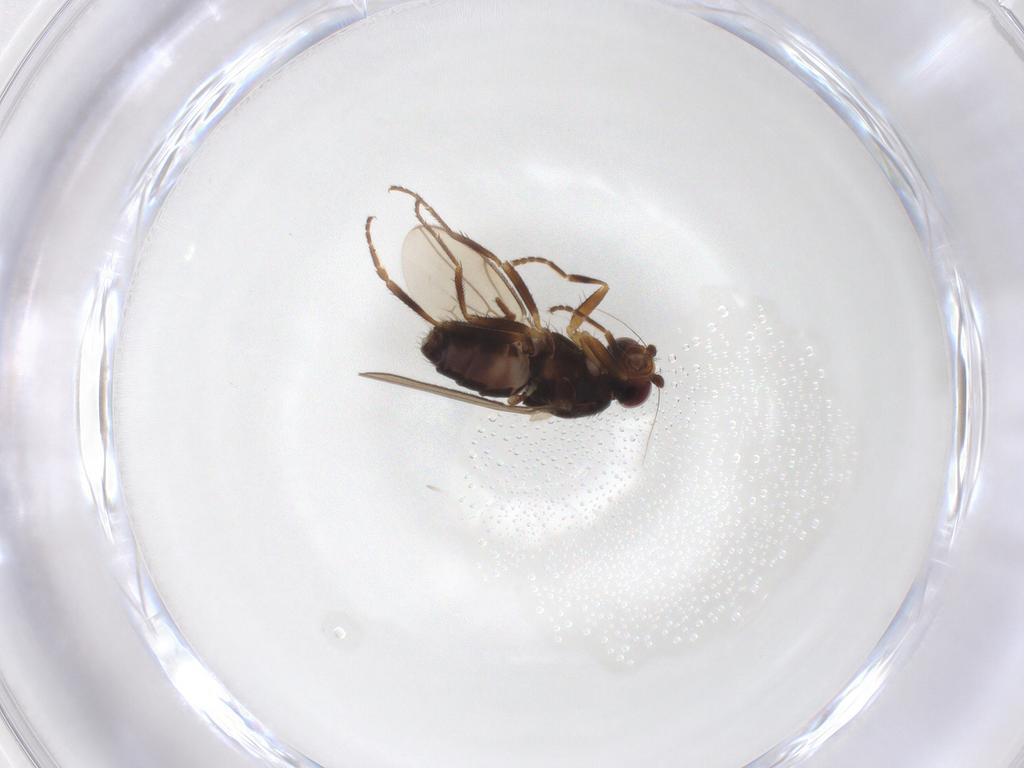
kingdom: Animalia
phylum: Arthropoda
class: Insecta
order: Diptera
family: Sphaeroceridae
